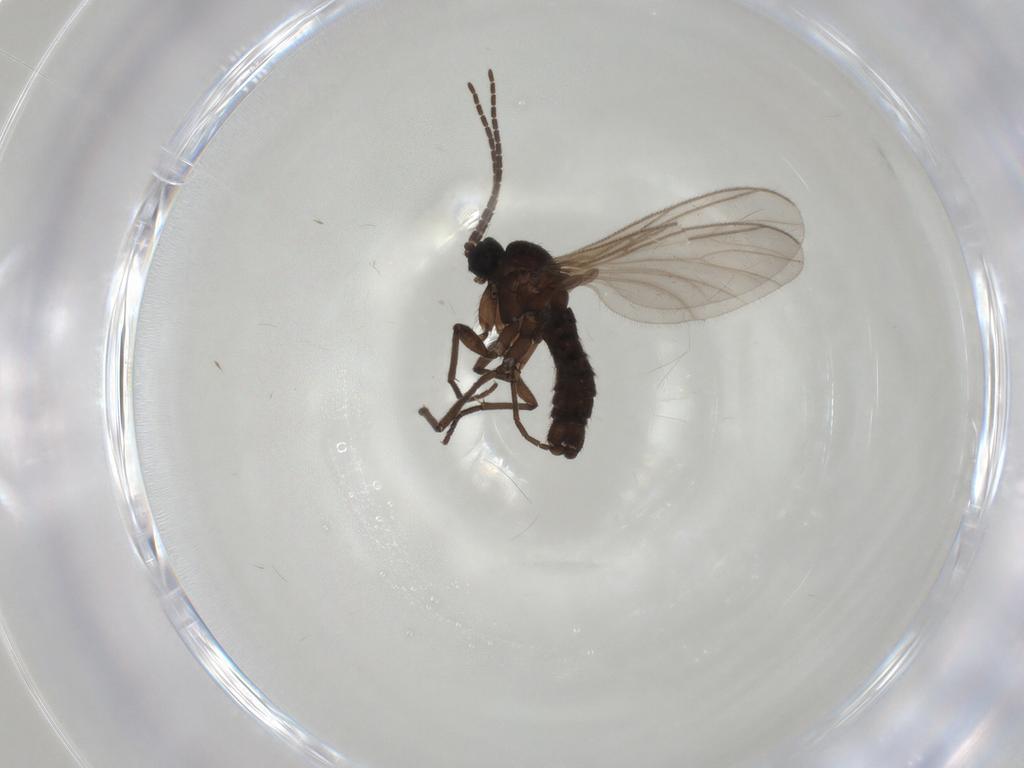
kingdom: Animalia
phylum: Arthropoda
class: Insecta
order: Diptera
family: Sciaridae
